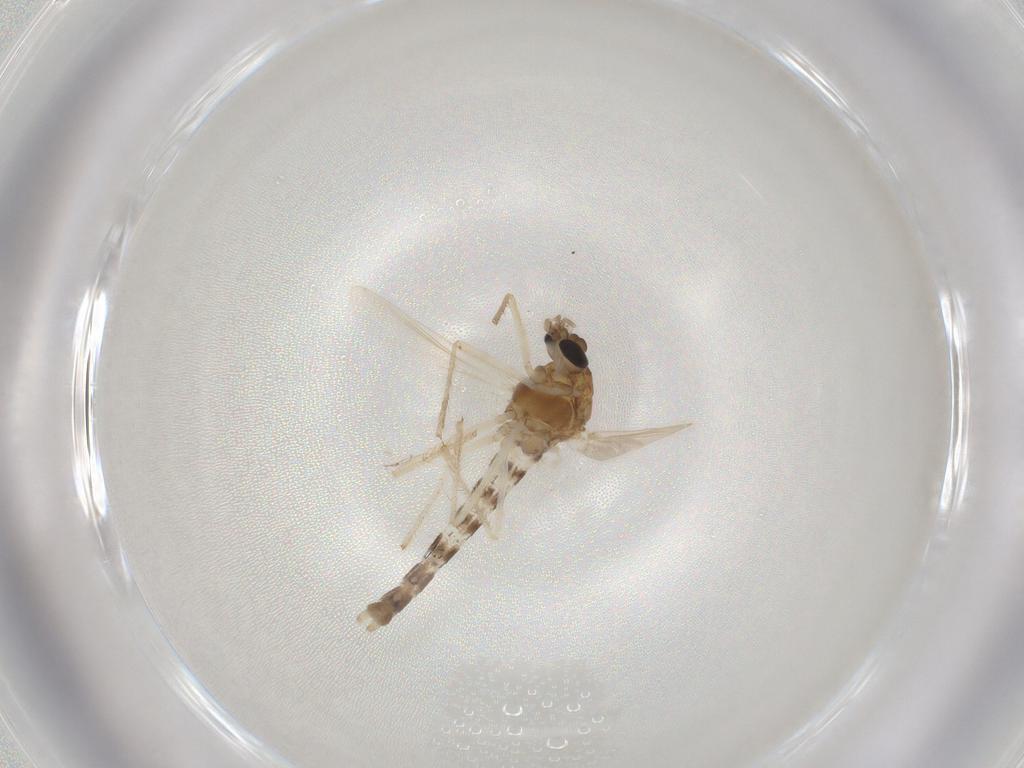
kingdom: Animalia
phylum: Arthropoda
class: Insecta
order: Diptera
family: Chironomidae
